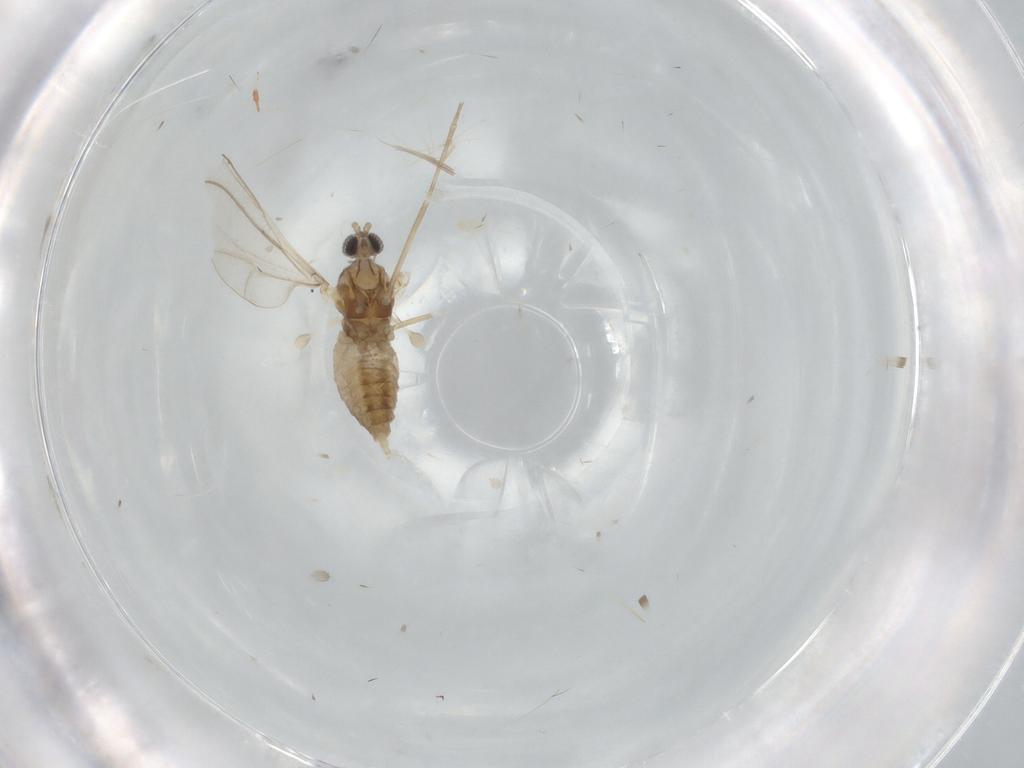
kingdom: Animalia
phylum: Arthropoda
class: Insecta
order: Diptera
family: Cecidomyiidae
